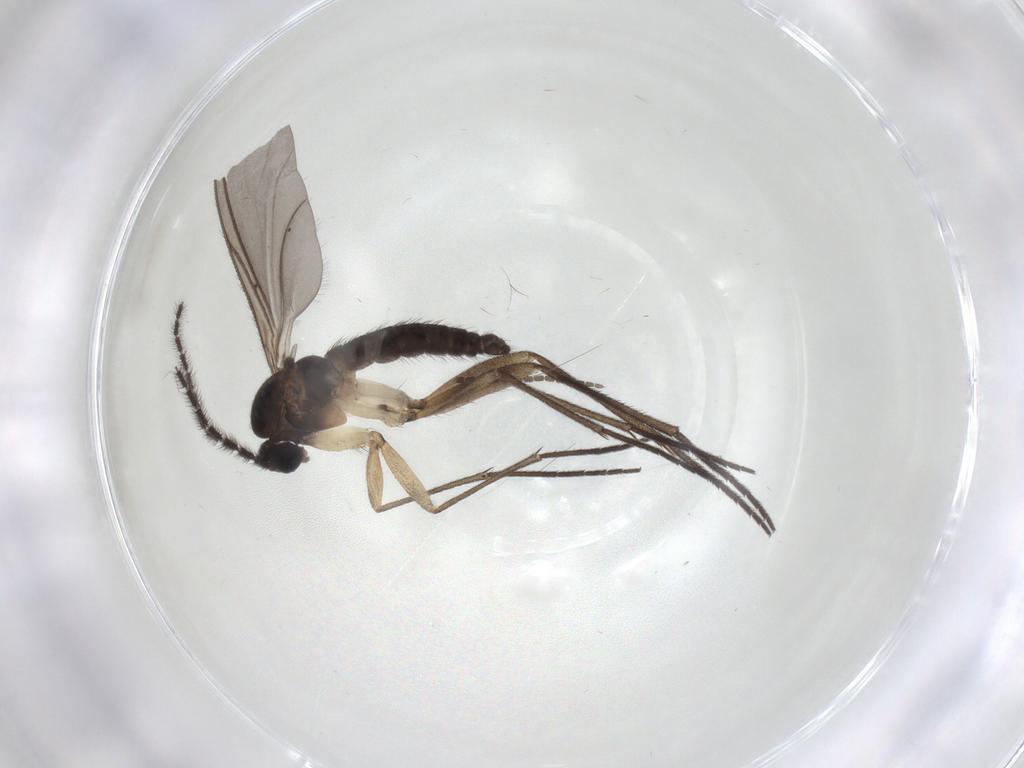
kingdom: Animalia
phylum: Arthropoda
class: Insecta
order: Diptera
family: Sciaridae
